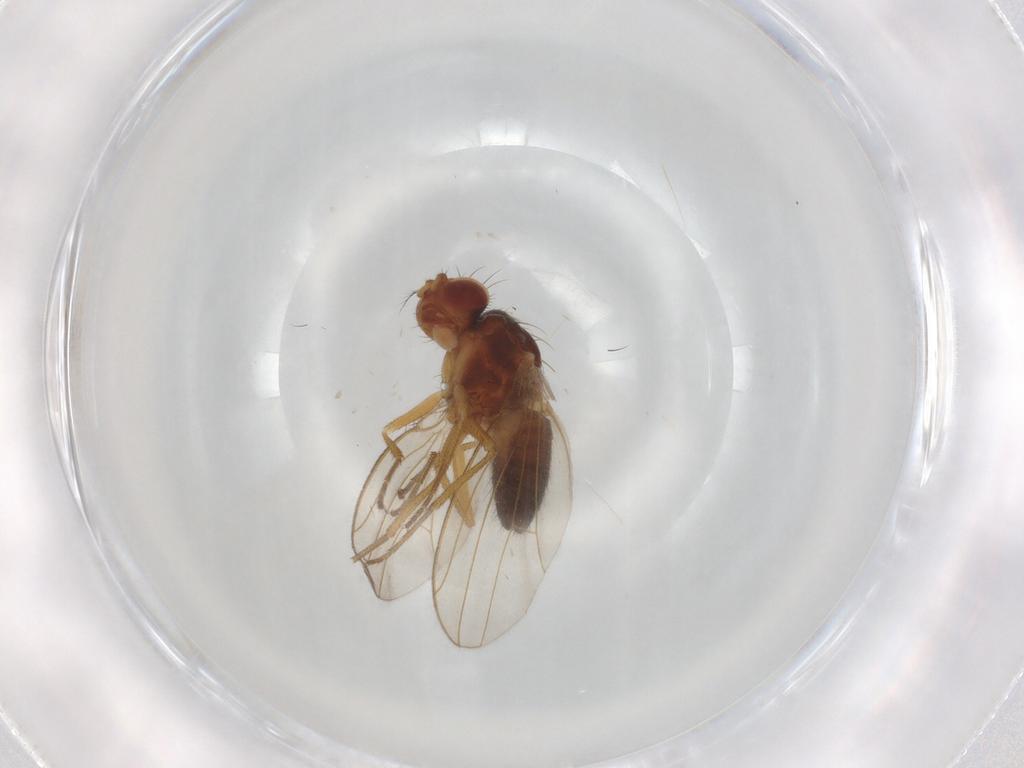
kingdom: Animalia
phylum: Arthropoda
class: Insecta
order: Diptera
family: Drosophilidae
